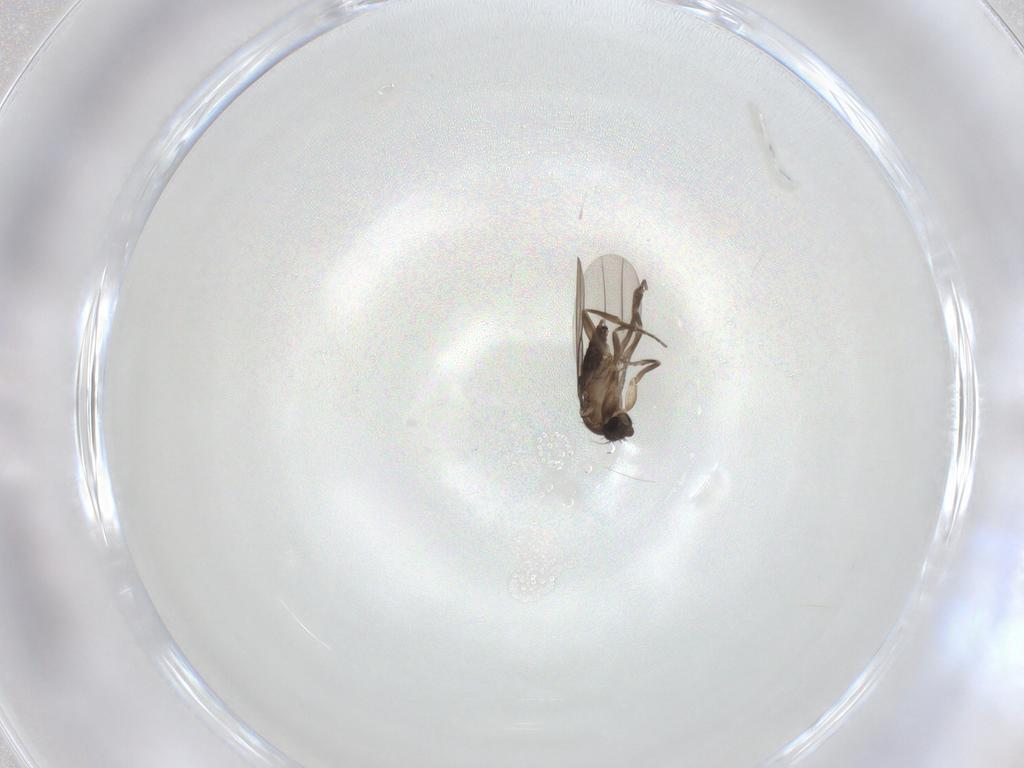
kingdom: Animalia
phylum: Arthropoda
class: Insecta
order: Diptera
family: Phoridae
